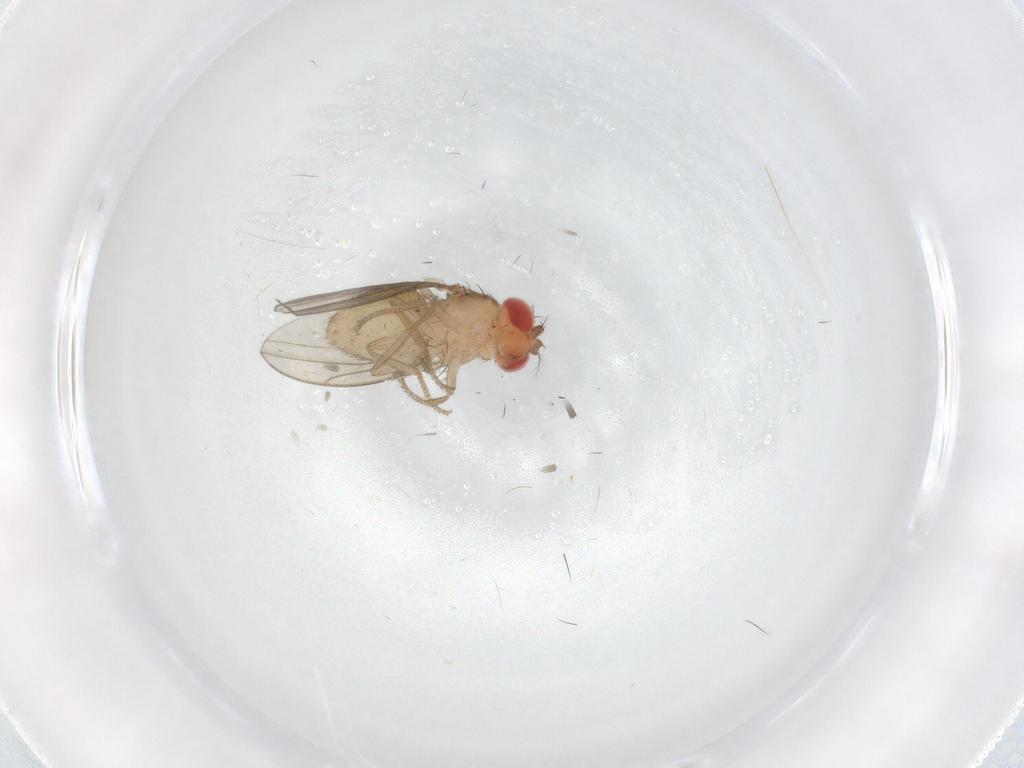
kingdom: Animalia
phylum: Arthropoda
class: Insecta
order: Diptera
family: Drosophilidae
